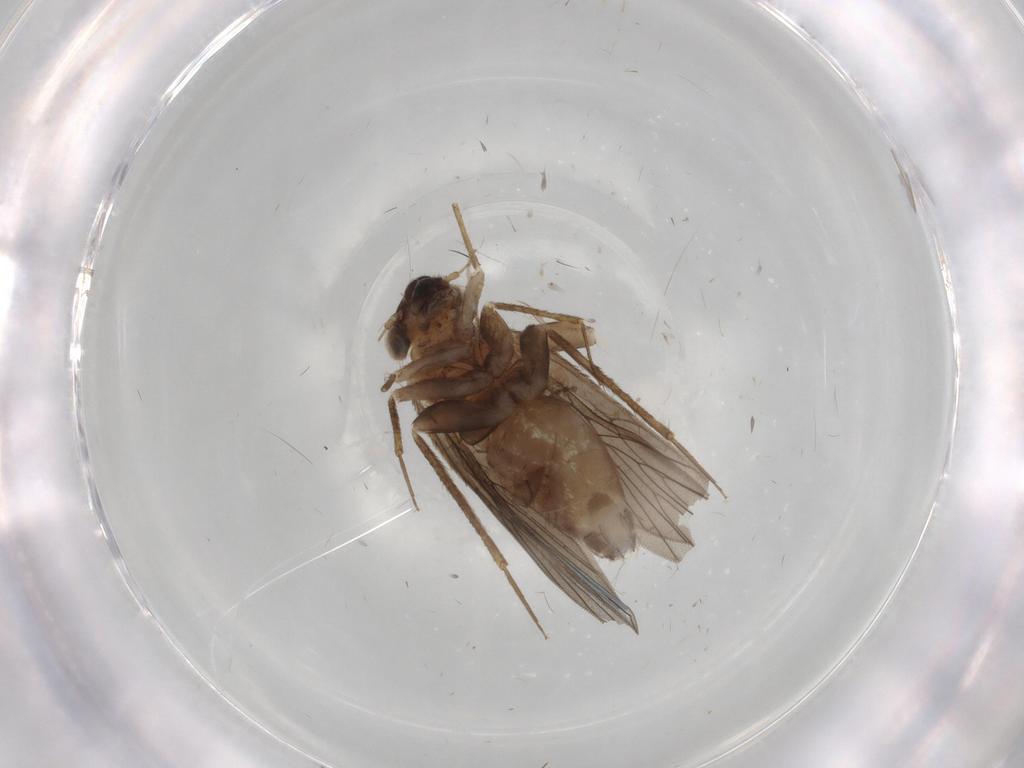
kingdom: Animalia
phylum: Arthropoda
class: Insecta
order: Psocodea
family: Lepidopsocidae
